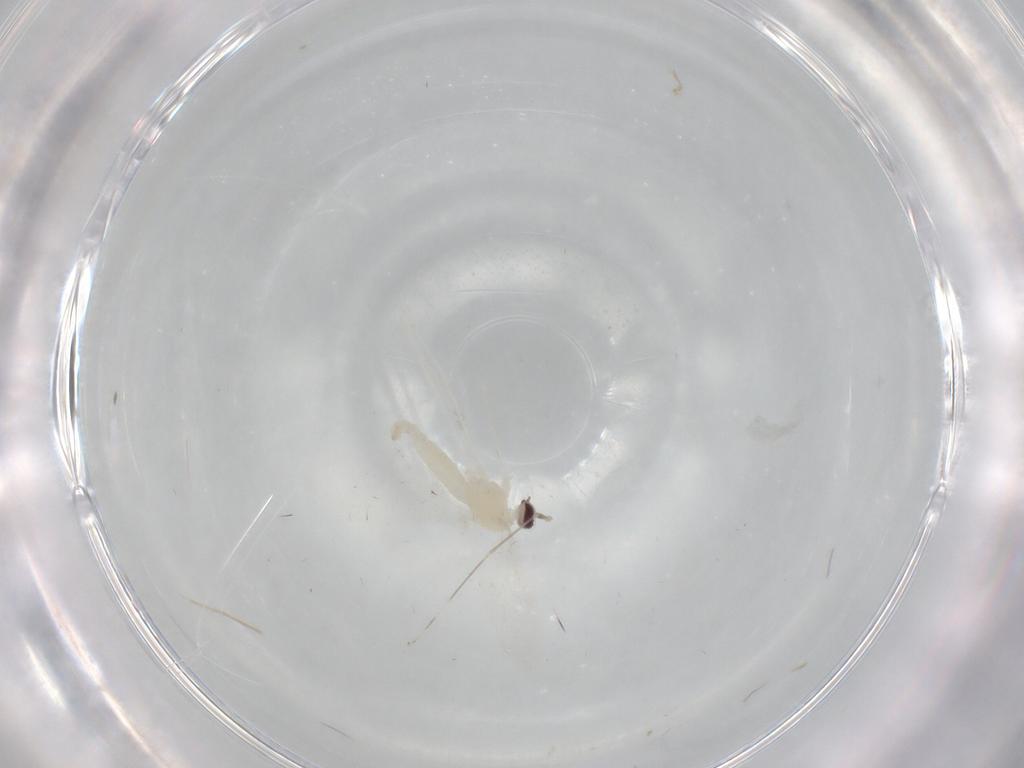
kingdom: Animalia
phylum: Arthropoda
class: Insecta
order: Diptera
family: Cecidomyiidae
